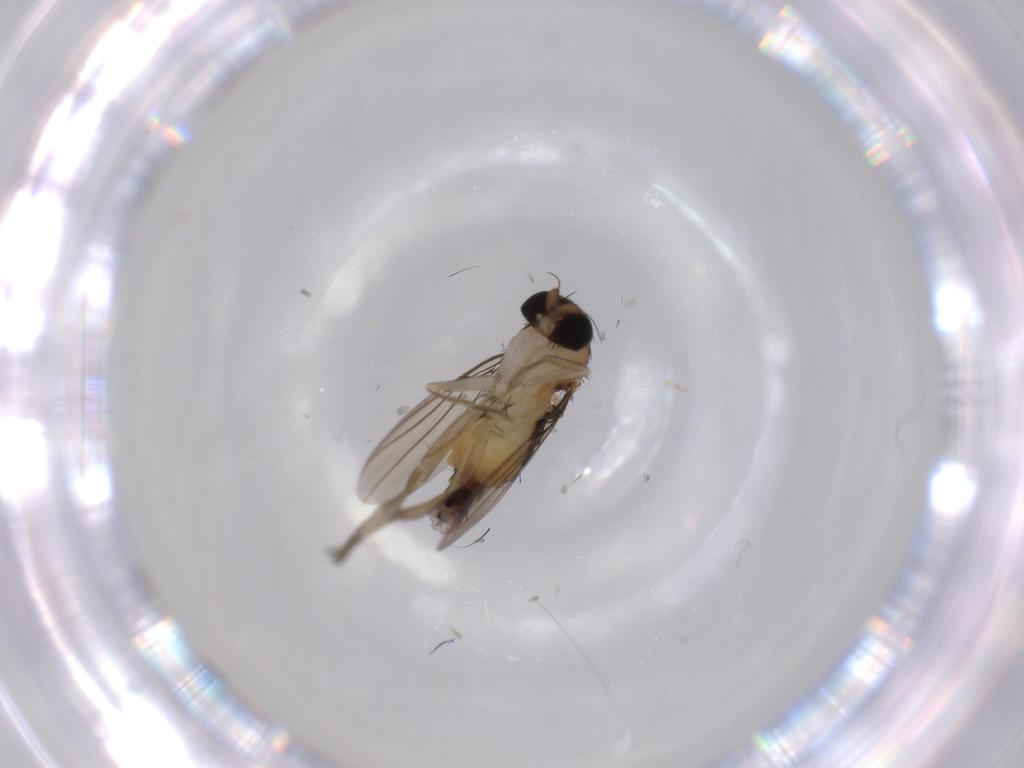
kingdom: Animalia
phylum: Arthropoda
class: Insecta
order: Diptera
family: Phoridae
